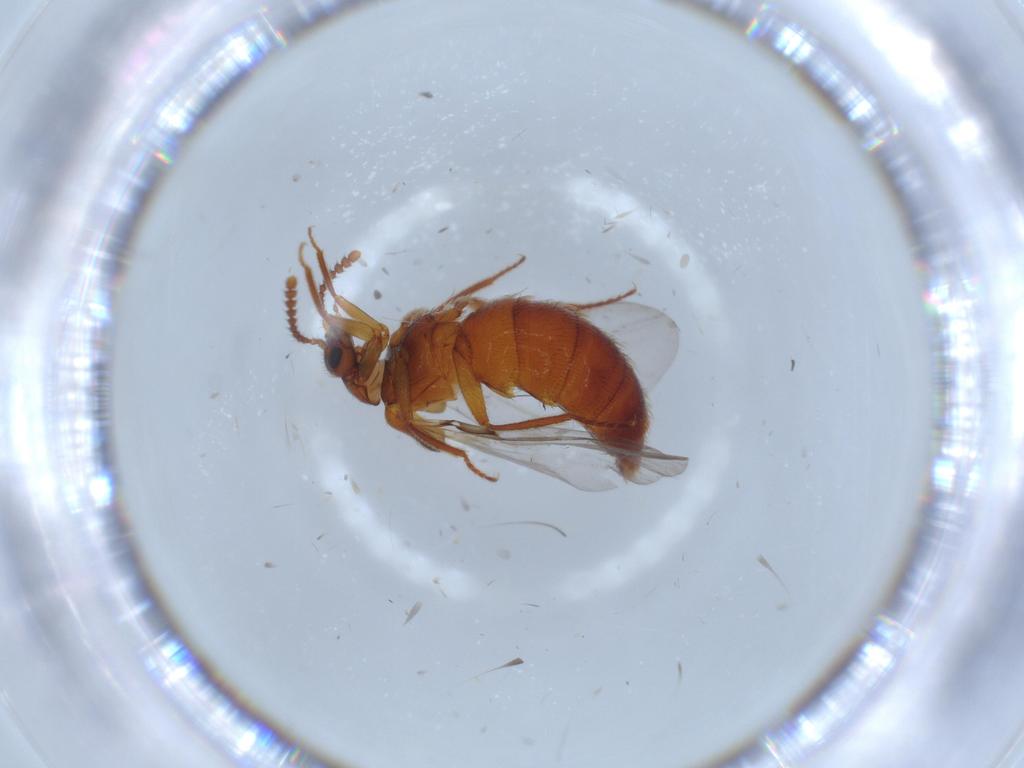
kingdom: Animalia
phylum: Arthropoda
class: Insecta
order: Coleoptera
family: Staphylinidae
